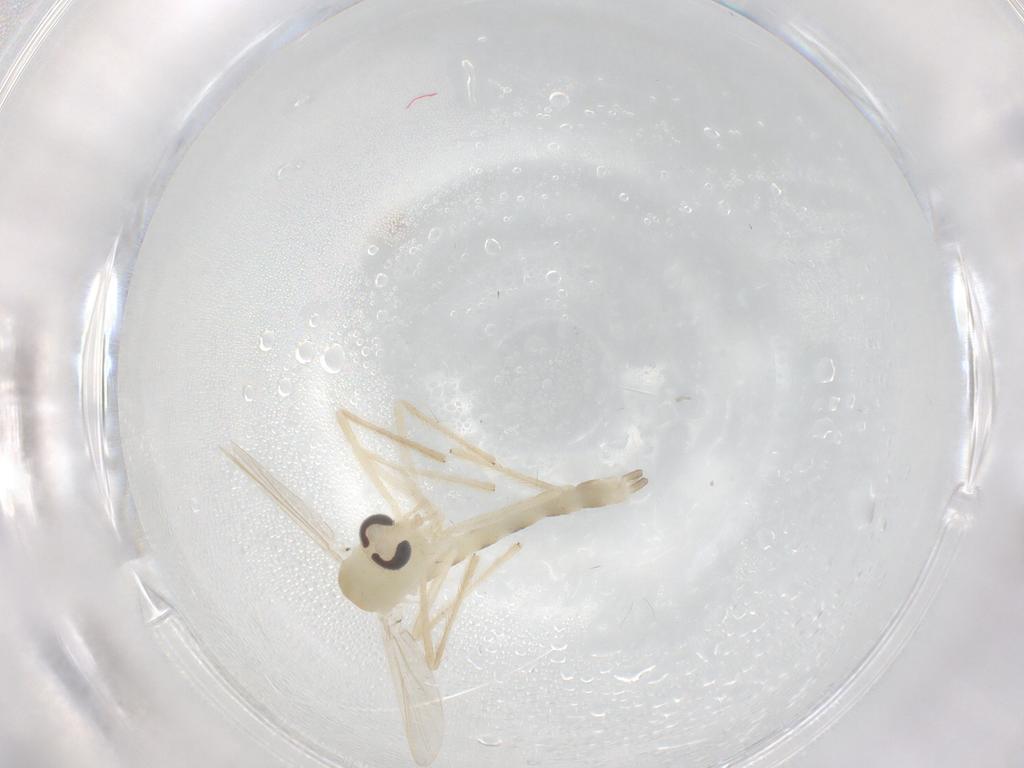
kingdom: Animalia
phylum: Arthropoda
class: Insecta
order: Diptera
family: Chironomidae
